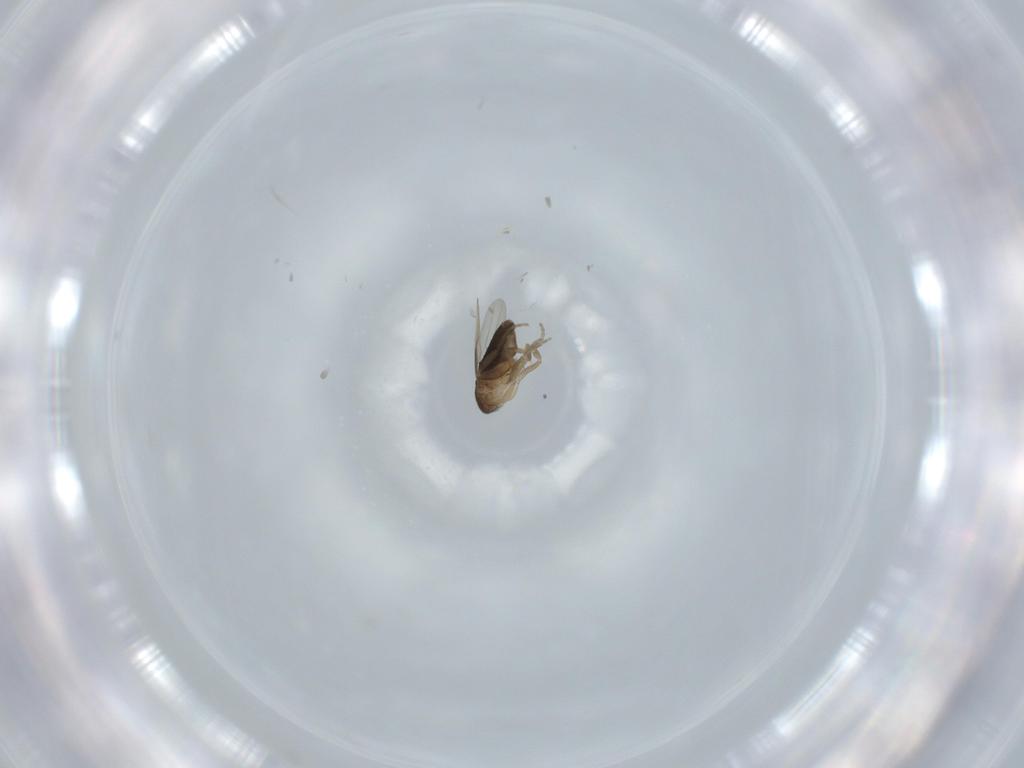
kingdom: Animalia
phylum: Arthropoda
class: Insecta
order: Diptera
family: Phoridae
